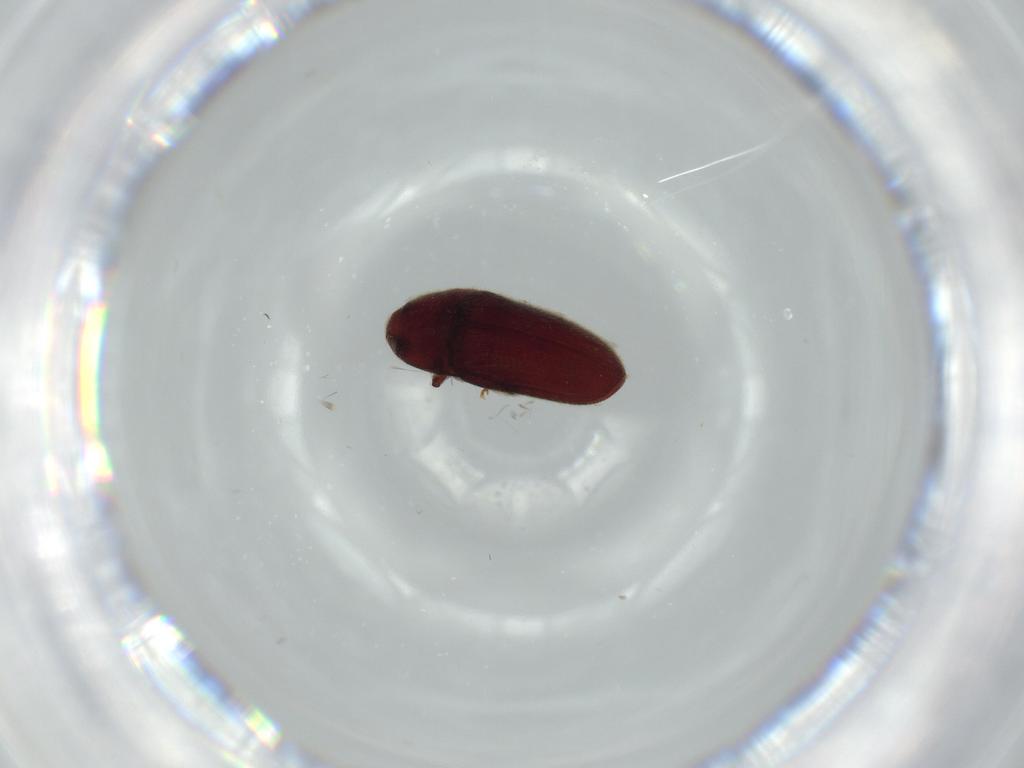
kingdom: Animalia
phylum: Arthropoda
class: Insecta
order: Coleoptera
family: Throscidae
